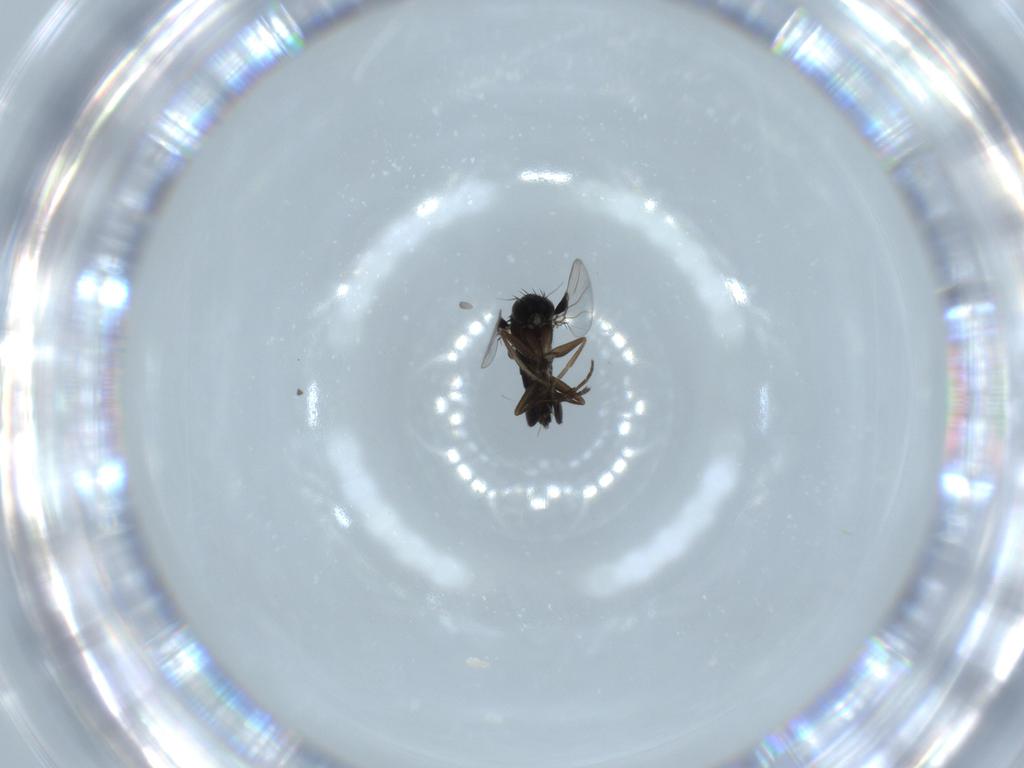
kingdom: Animalia
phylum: Arthropoda
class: Insecta
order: Diptera
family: Phoridae
